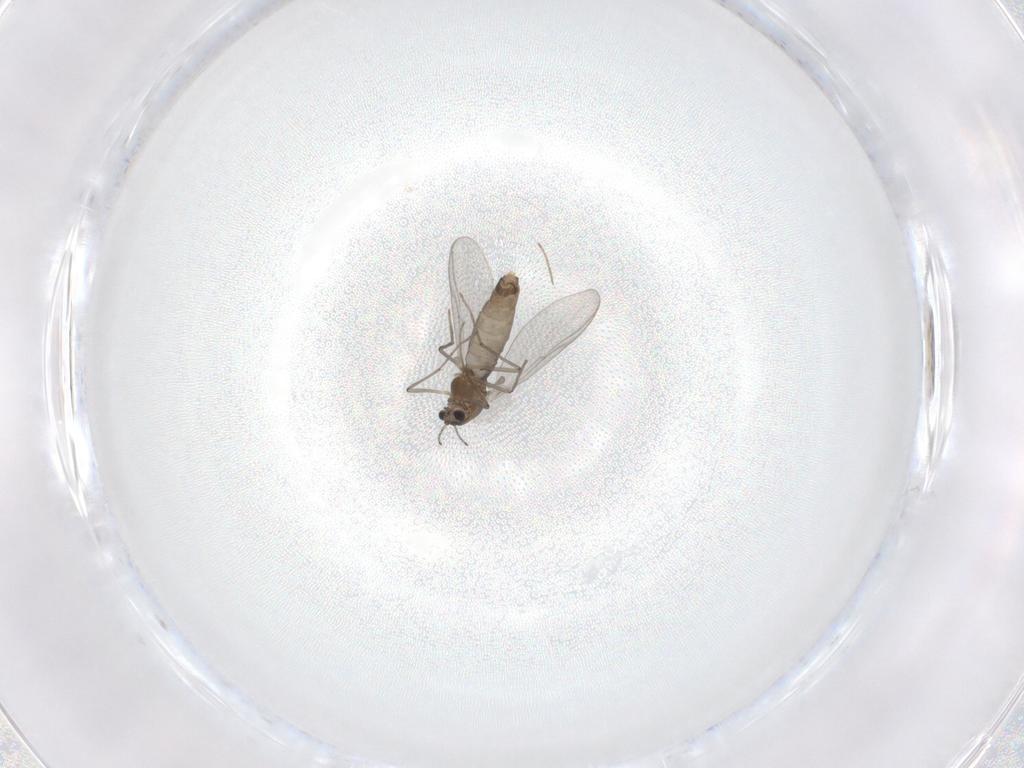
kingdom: Animalia
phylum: Arthropoda
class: Insecta
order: Diptera
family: Chironomidae
